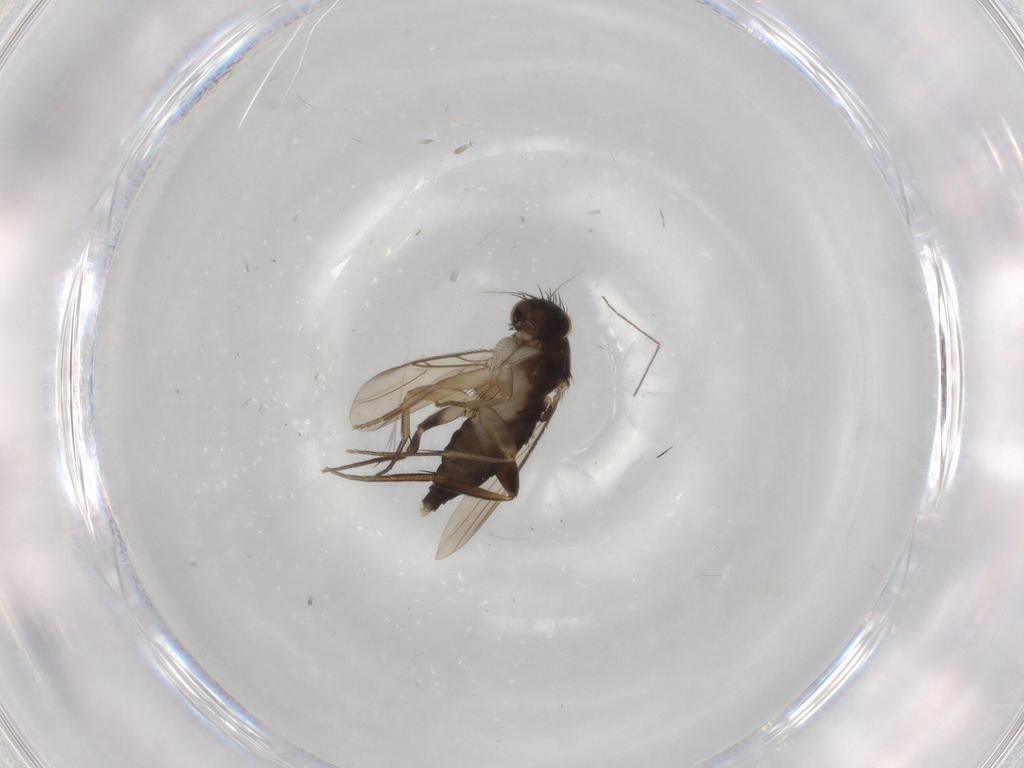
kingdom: Animalia
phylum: Arthropoda
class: Insecta
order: Diptera
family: Phoridae
